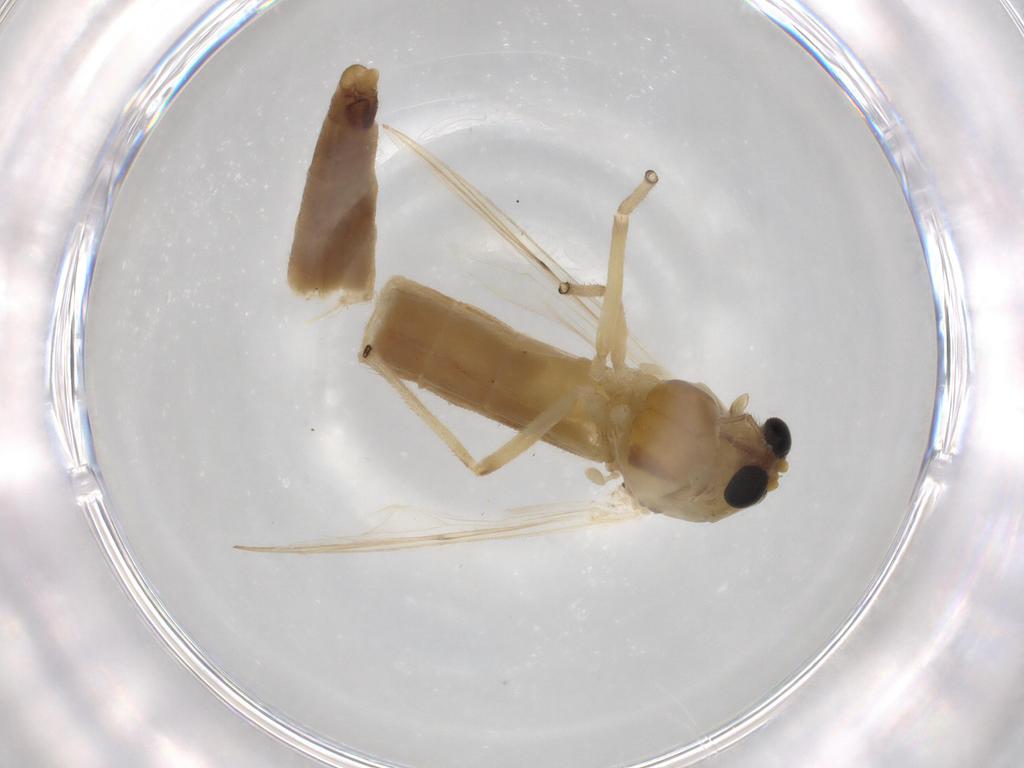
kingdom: Animalia
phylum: Arthropoda
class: Insecta
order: Diptera
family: Chironomidae
